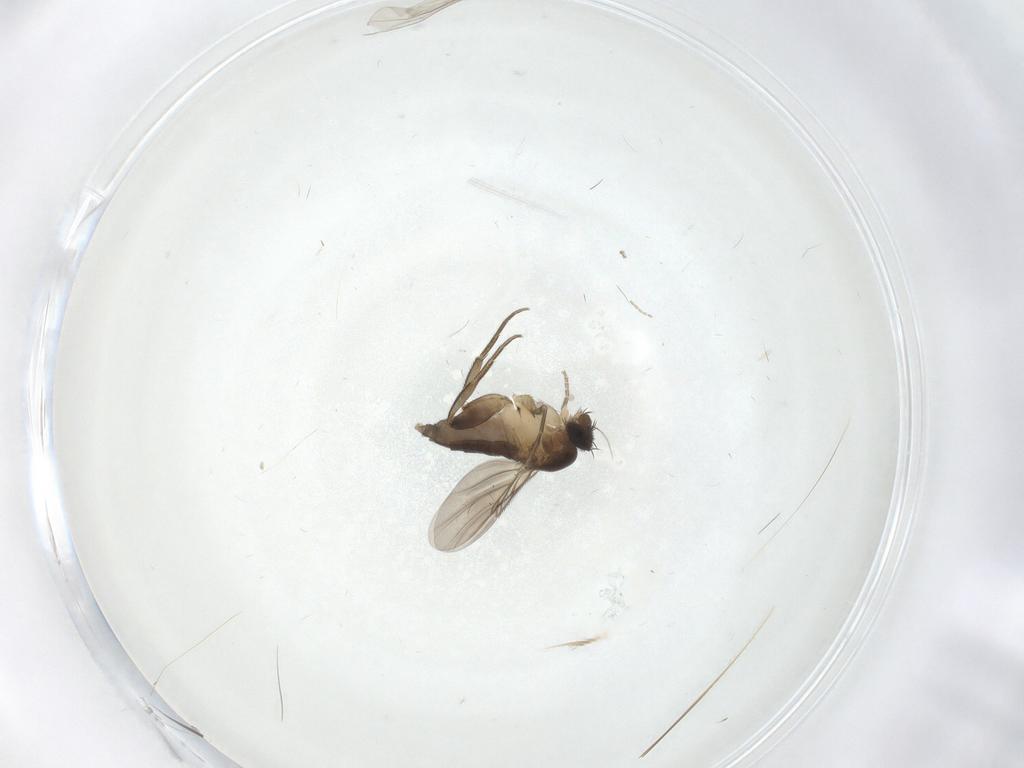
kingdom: Animalia
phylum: Arthropoda
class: Insecta
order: Diptera
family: Phoridae
